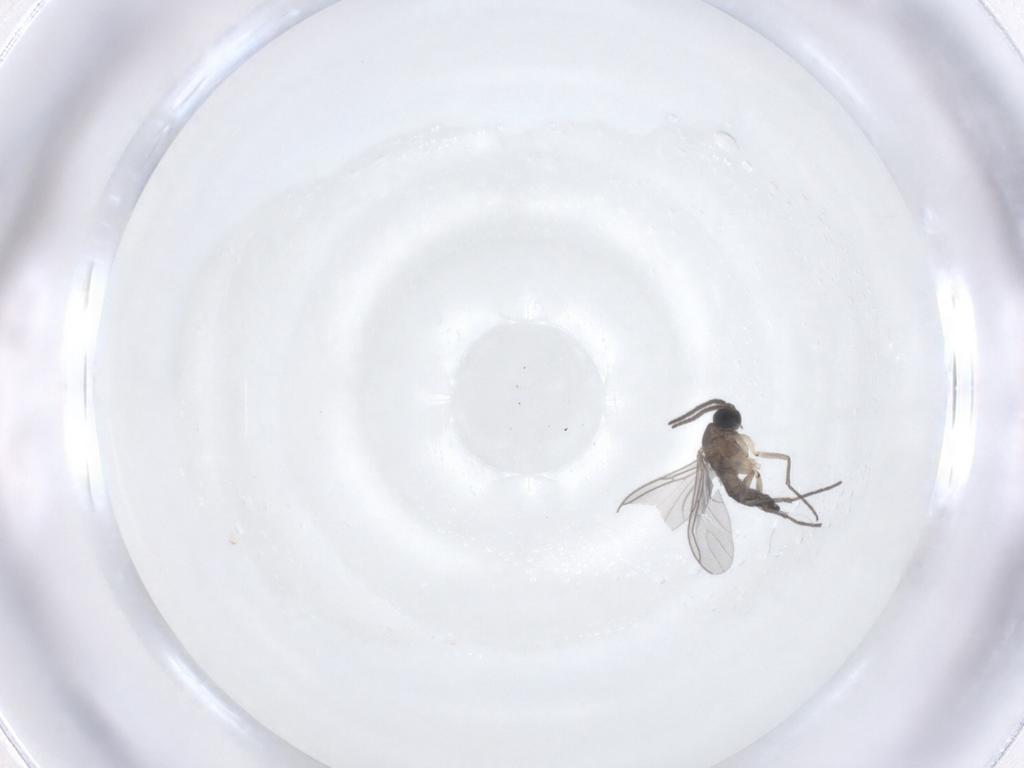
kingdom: Animalia
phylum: Arthropoda
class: Insecta
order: Diptera
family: Sciaridae
